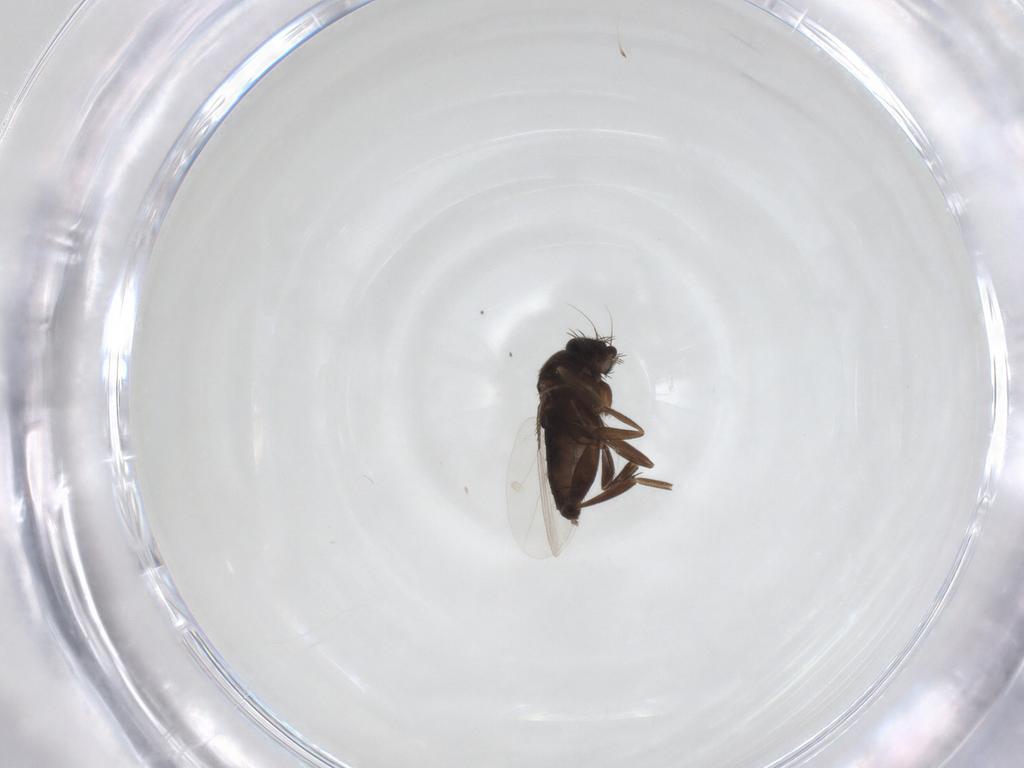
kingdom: Animalia
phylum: Arthropoda
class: Insecta
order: Diptera
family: Phoridae
